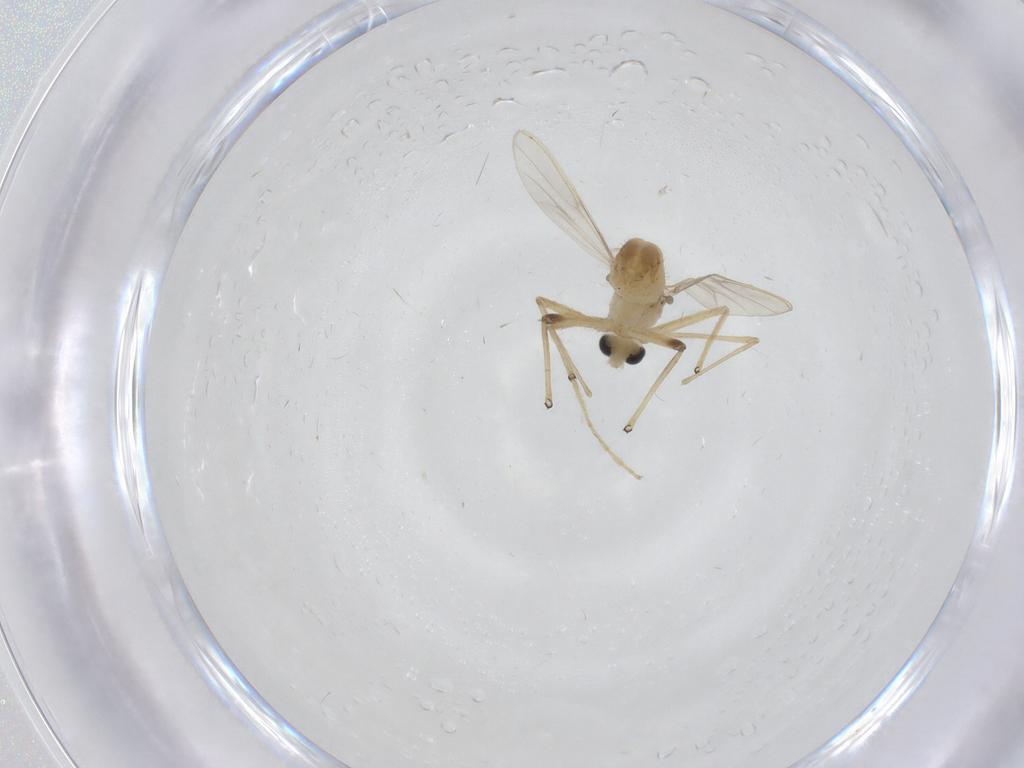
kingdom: Animalia
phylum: Arthropoda
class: Insecta
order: Diptera
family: Chironomidae
